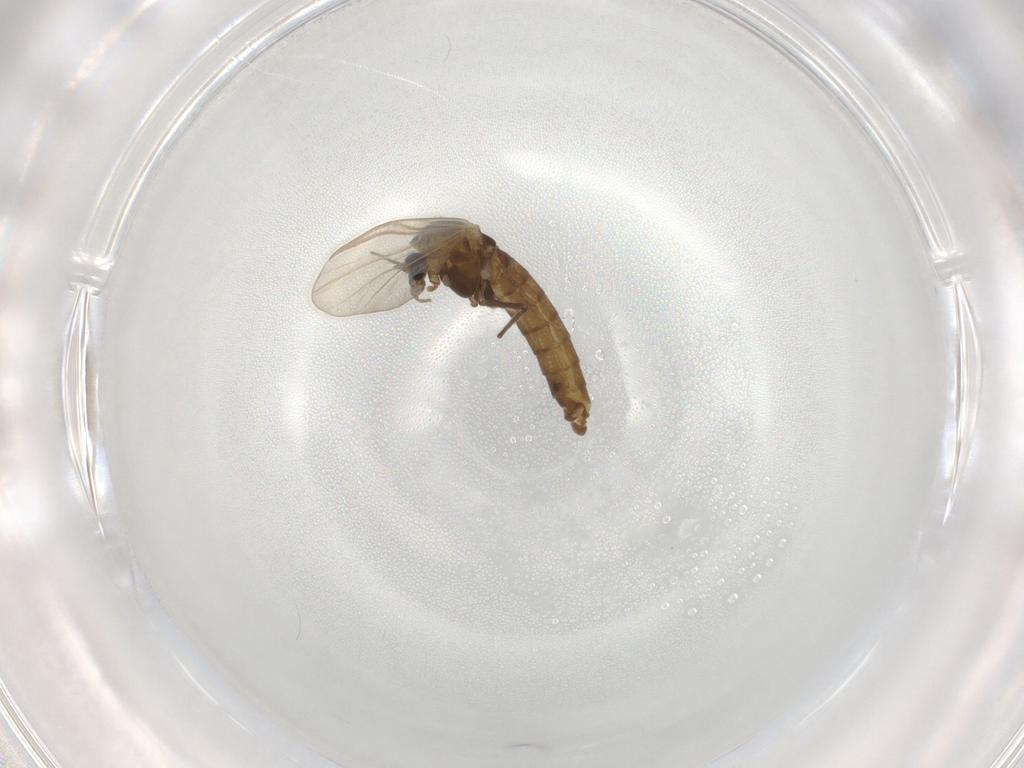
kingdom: Animalia
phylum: Arthropoda
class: Insecta
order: Diptera
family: Chironomidae
